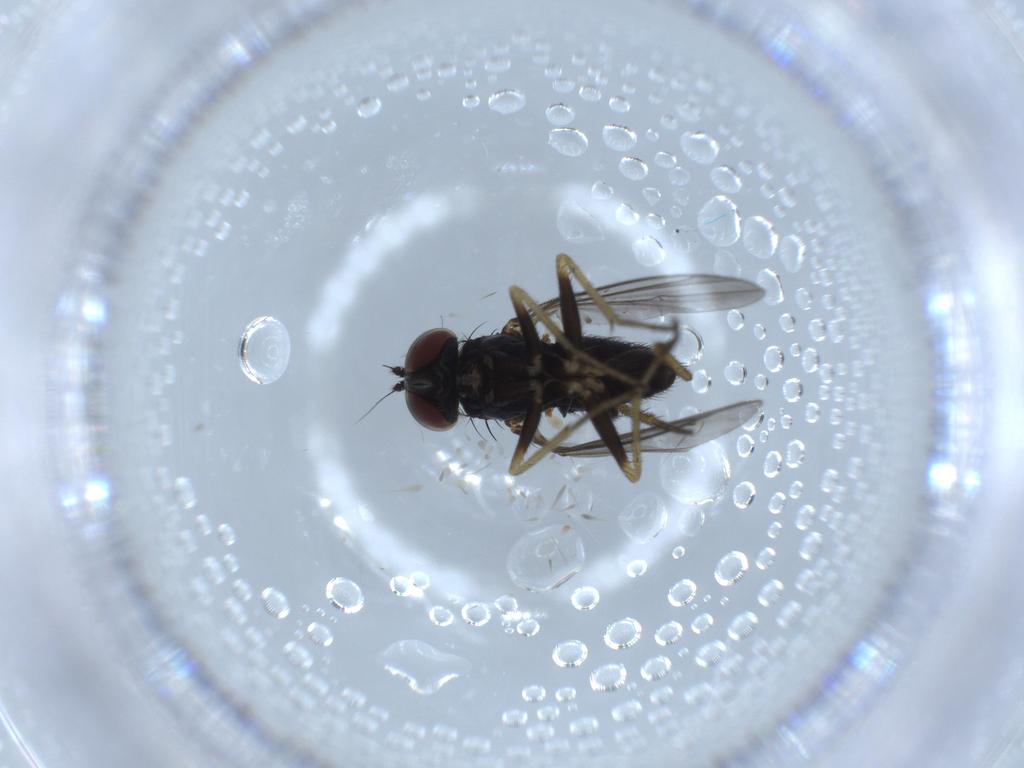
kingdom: Animalia
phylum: Arthropoda
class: Insecta
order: Diptera
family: Dolichopodidae
